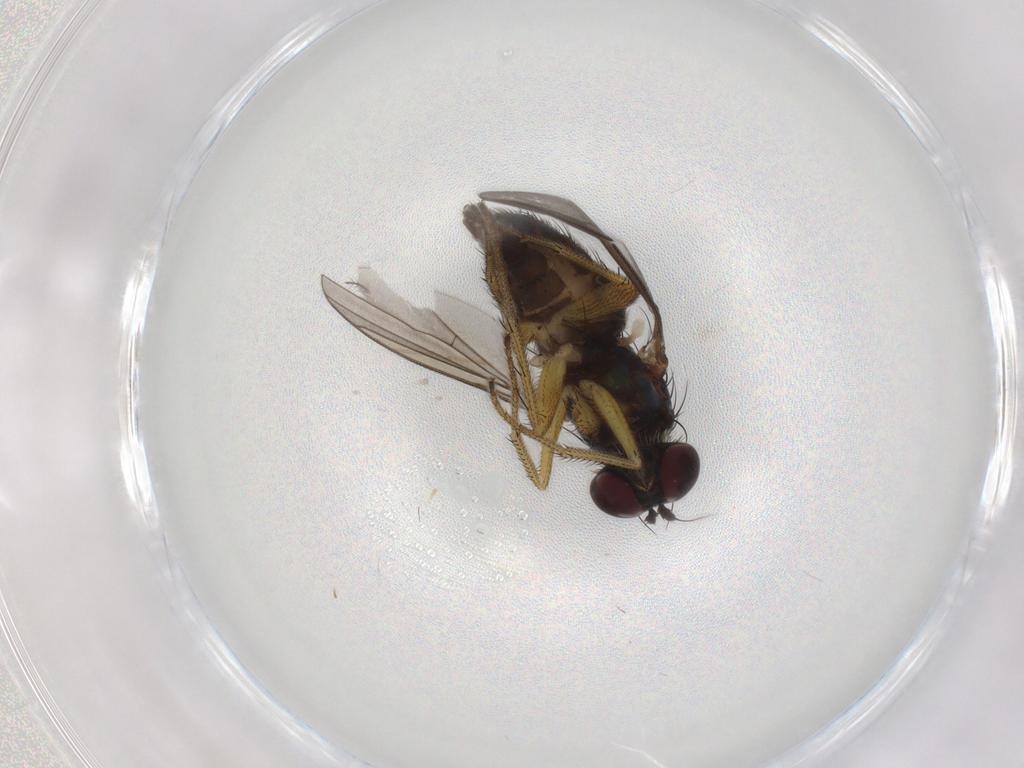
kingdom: Animalia
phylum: Arthropoda
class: Insecta
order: Diptera
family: Dolichopodidae
